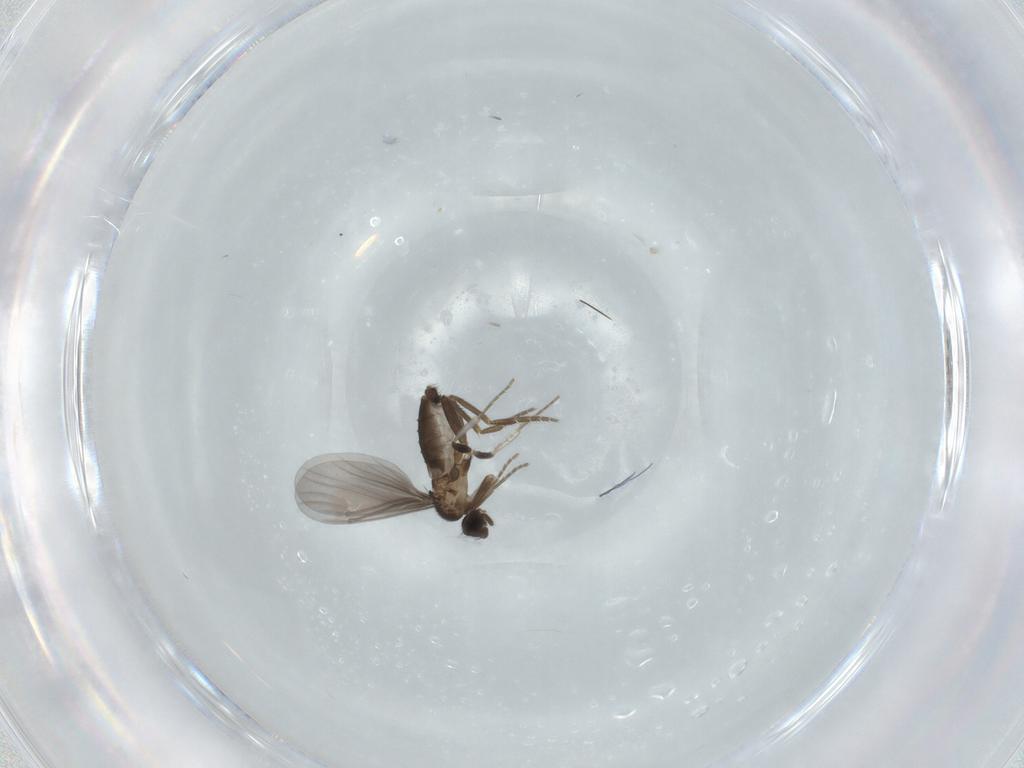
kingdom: Animalia
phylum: Arthropoda
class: Insecta
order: Diptera
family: Phoridae
